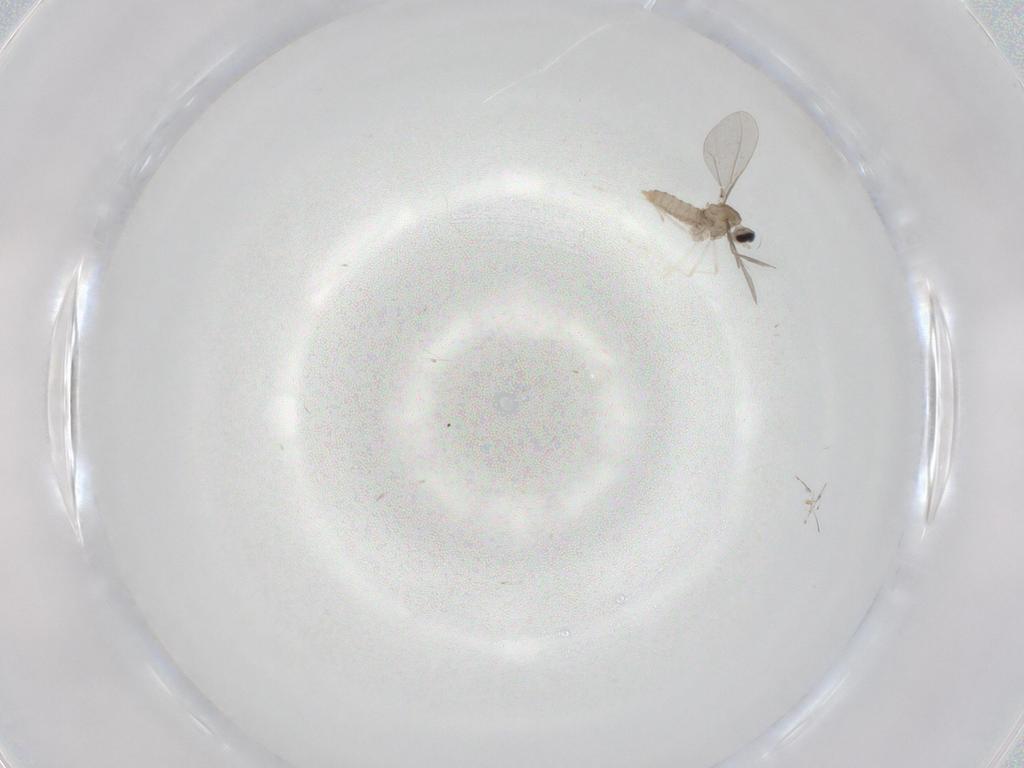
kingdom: Animalia
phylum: Arthropoda
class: Insecta
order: Diptera
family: Cecidomyiidae
